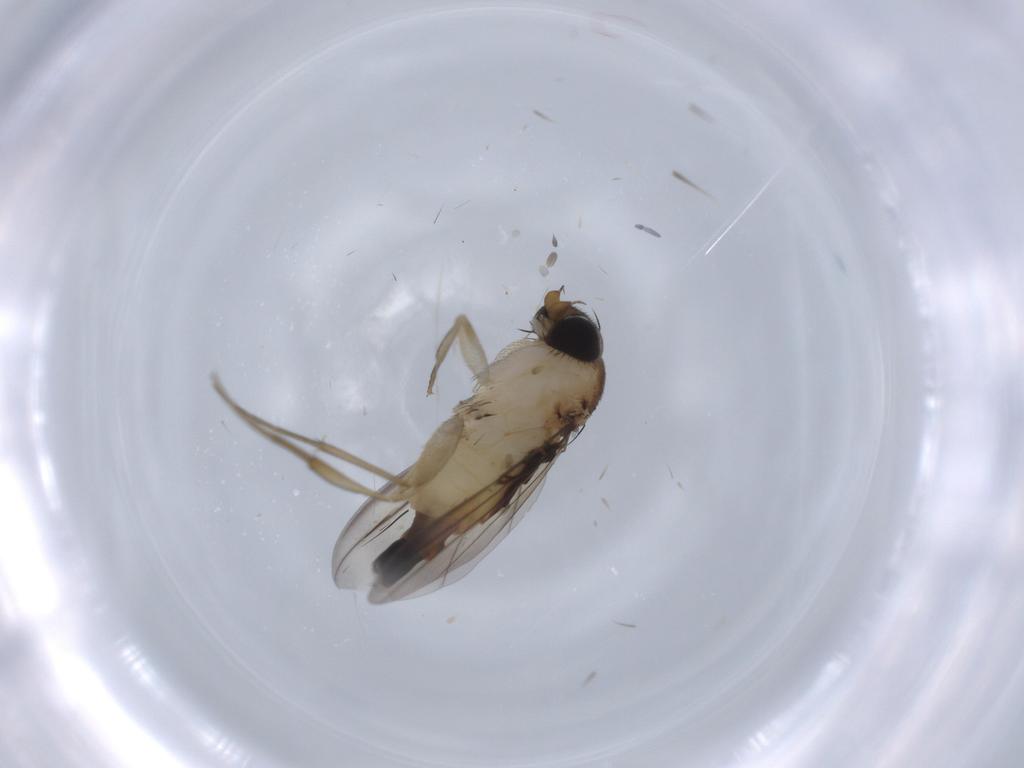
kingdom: Animalia
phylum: Arthropoda
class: Insecta
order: Diptera
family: Phoridae
